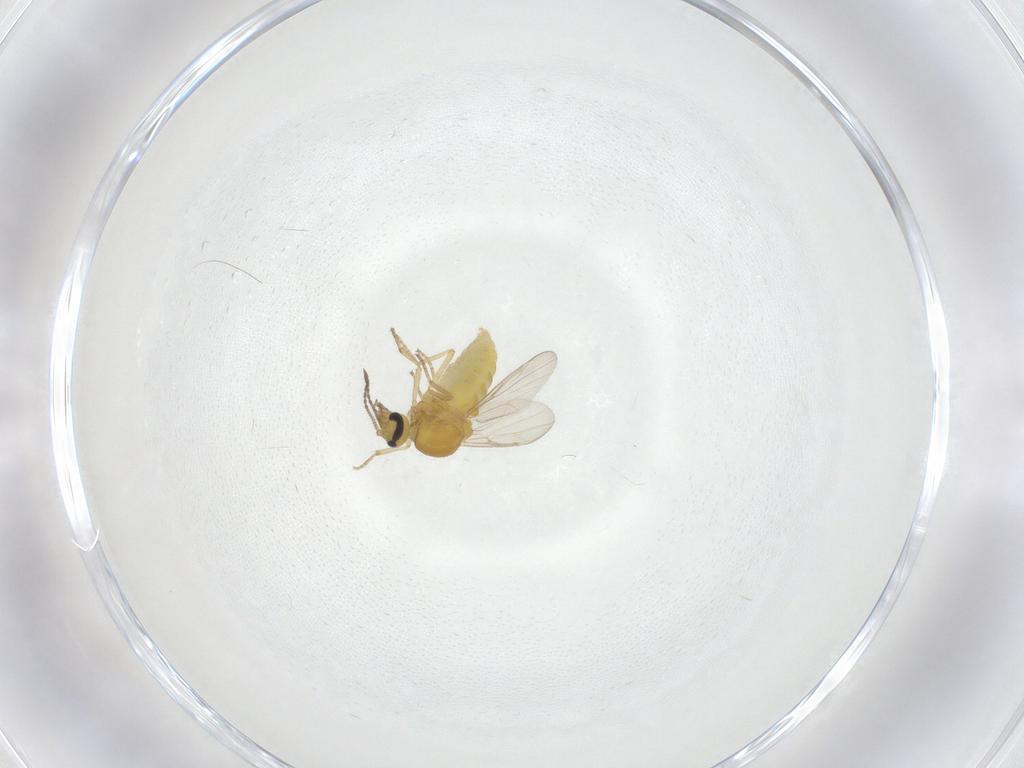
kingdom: Animalia
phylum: Arthropoda
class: Insecta
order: Diptera
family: Ceratopogonidae
